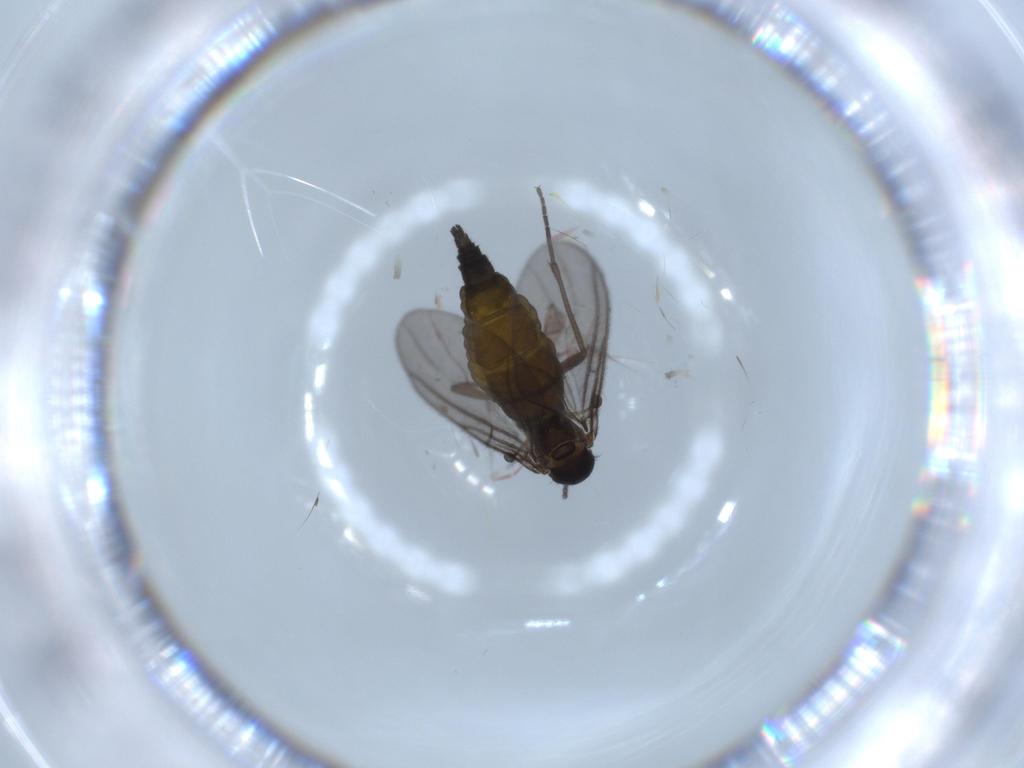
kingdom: Animalia
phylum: Arthropoda
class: Insecta
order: Diptera
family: Sciaridae
